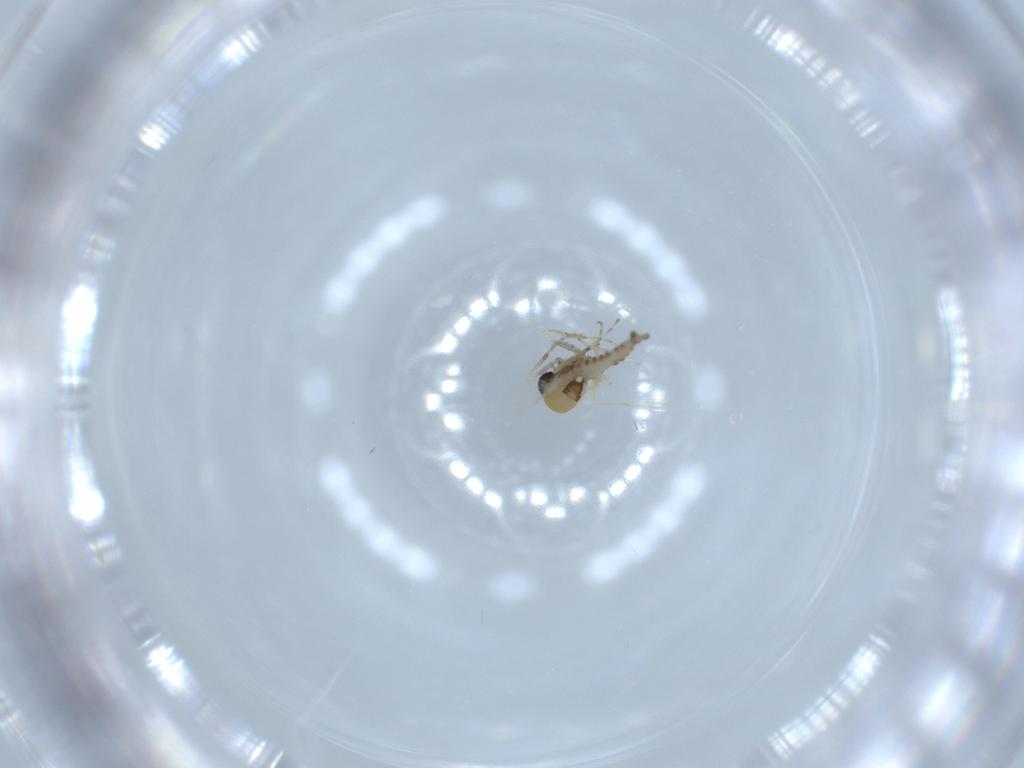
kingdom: Animalia
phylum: Arthropoda
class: Insecta
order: Diptera
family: Ceratopogonidae
